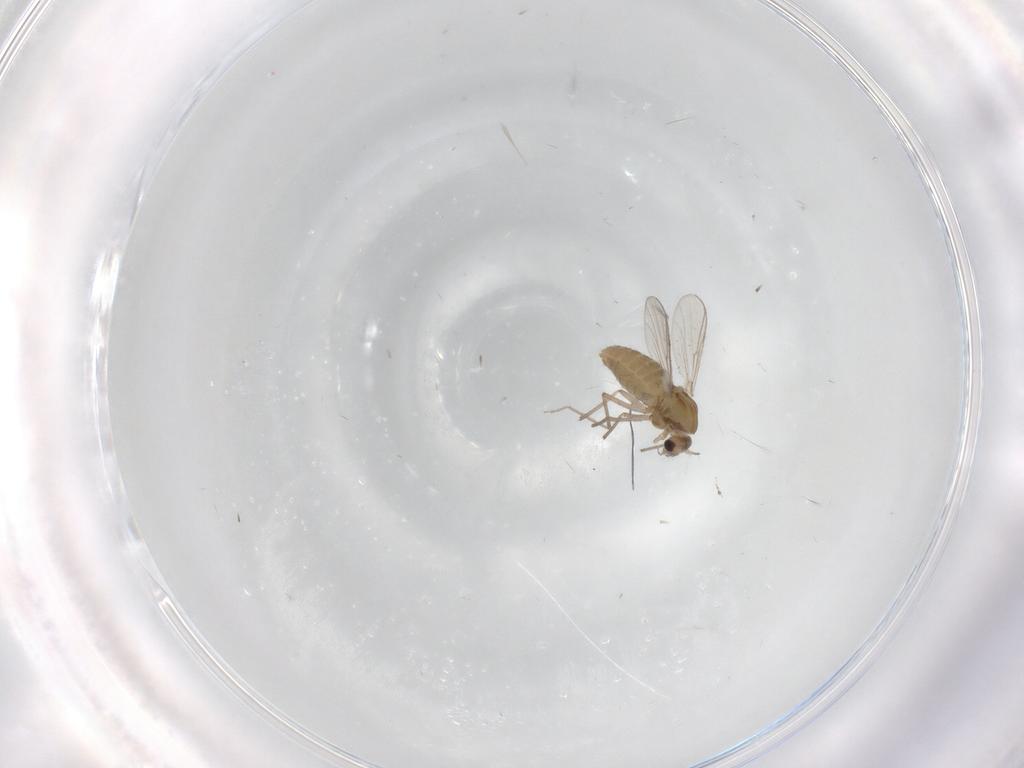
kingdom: Animalia
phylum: Arthropoda
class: Insecta
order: Diptera
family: Chironomidae
